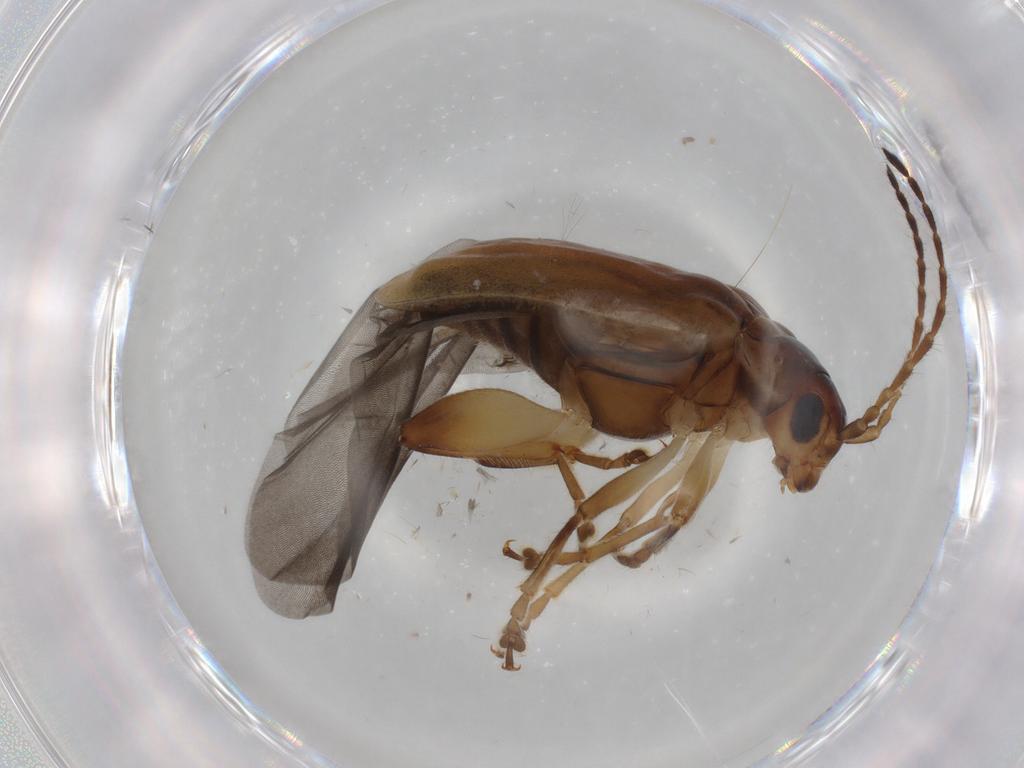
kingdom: Animalia
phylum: Arthropoda
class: Insecta
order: Coleoptera
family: Chrysomelidae
